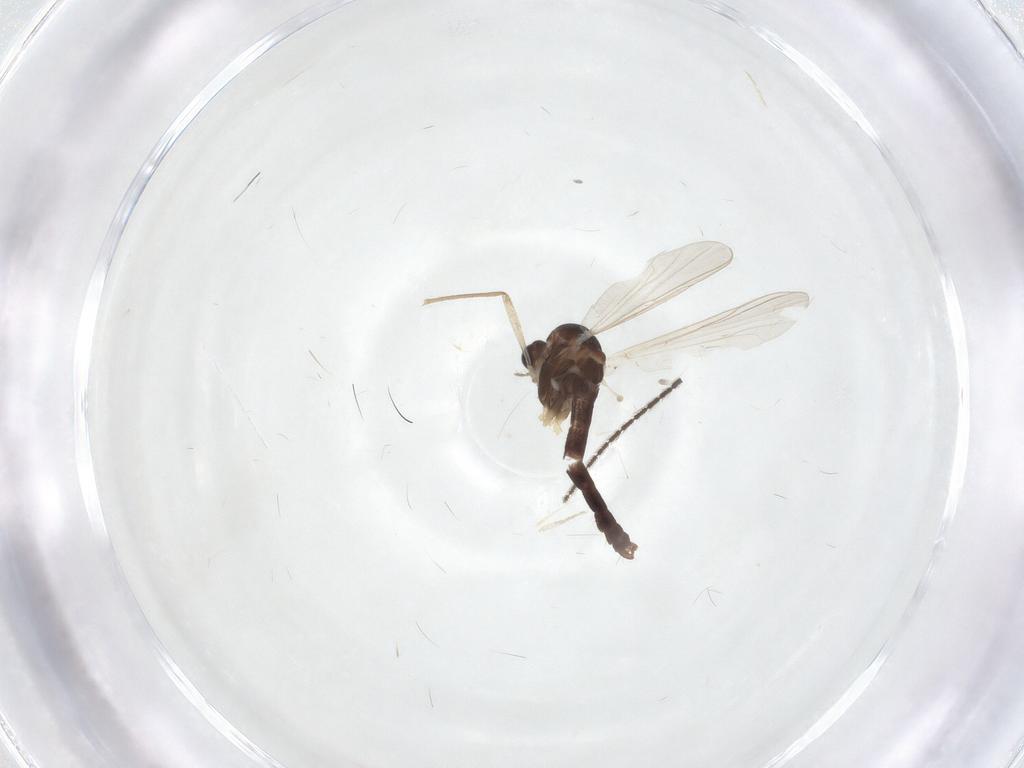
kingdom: Animalia
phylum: Arthropoda
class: Insecta
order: Diptera
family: Chironomidae
